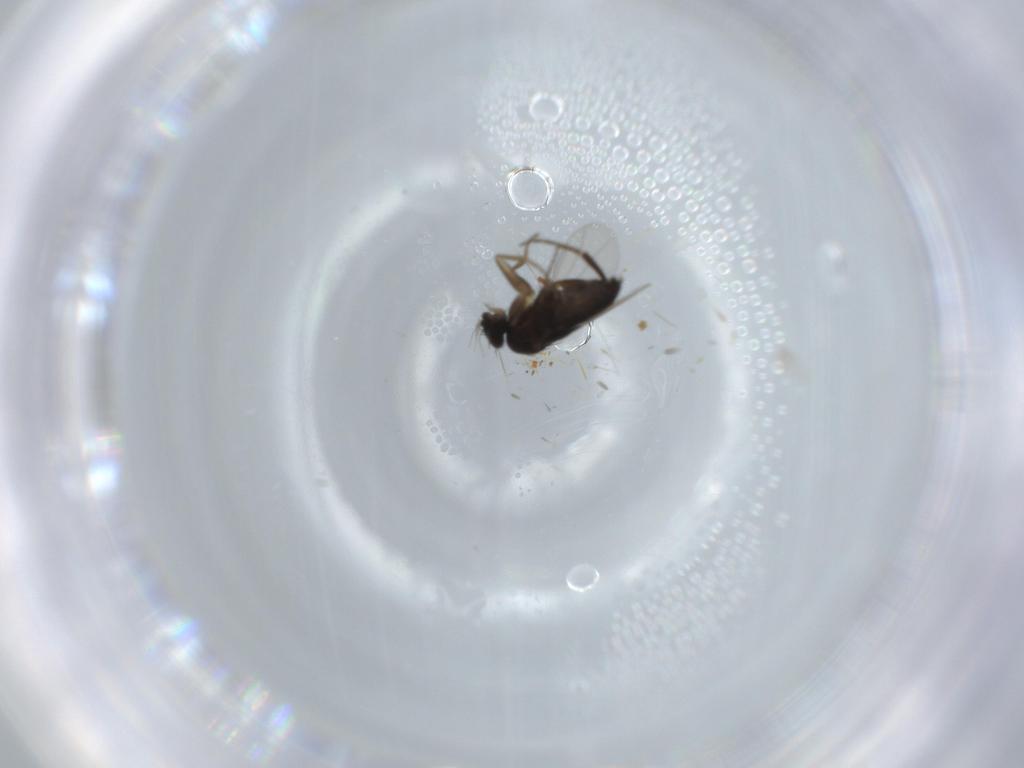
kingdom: Animalia
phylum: Arthropoda
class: Insecta
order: Diptera
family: Phoridae
